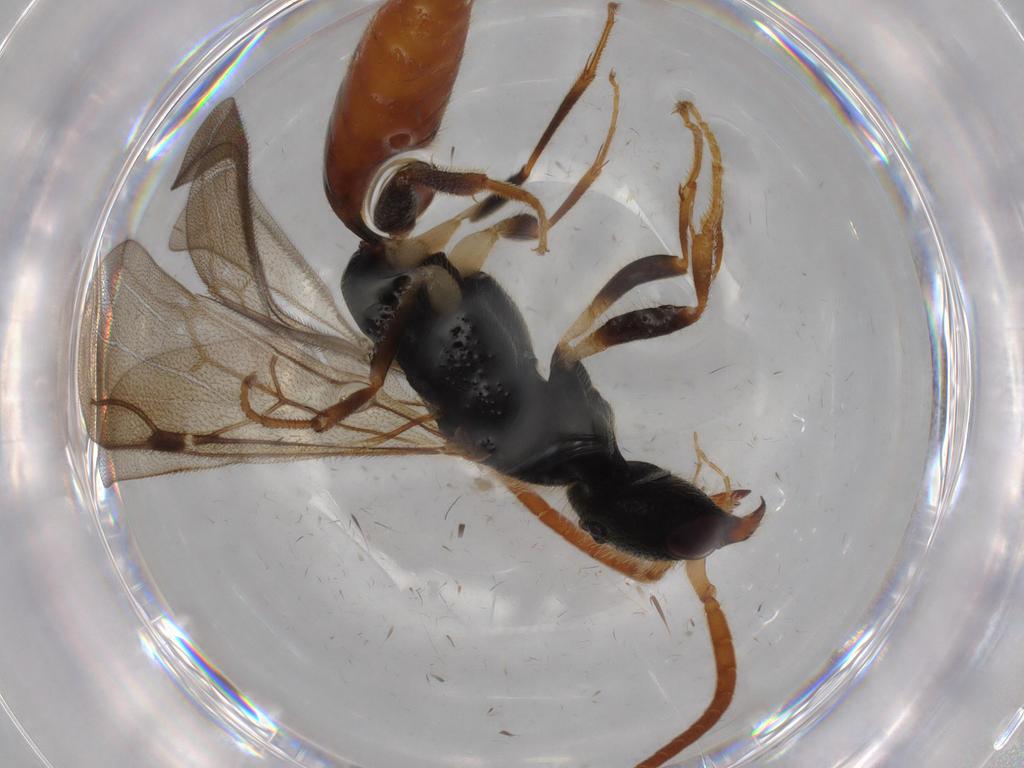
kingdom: Animalia
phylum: Arthropoda
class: Insecta
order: Hymenoptera
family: Bethylidae
